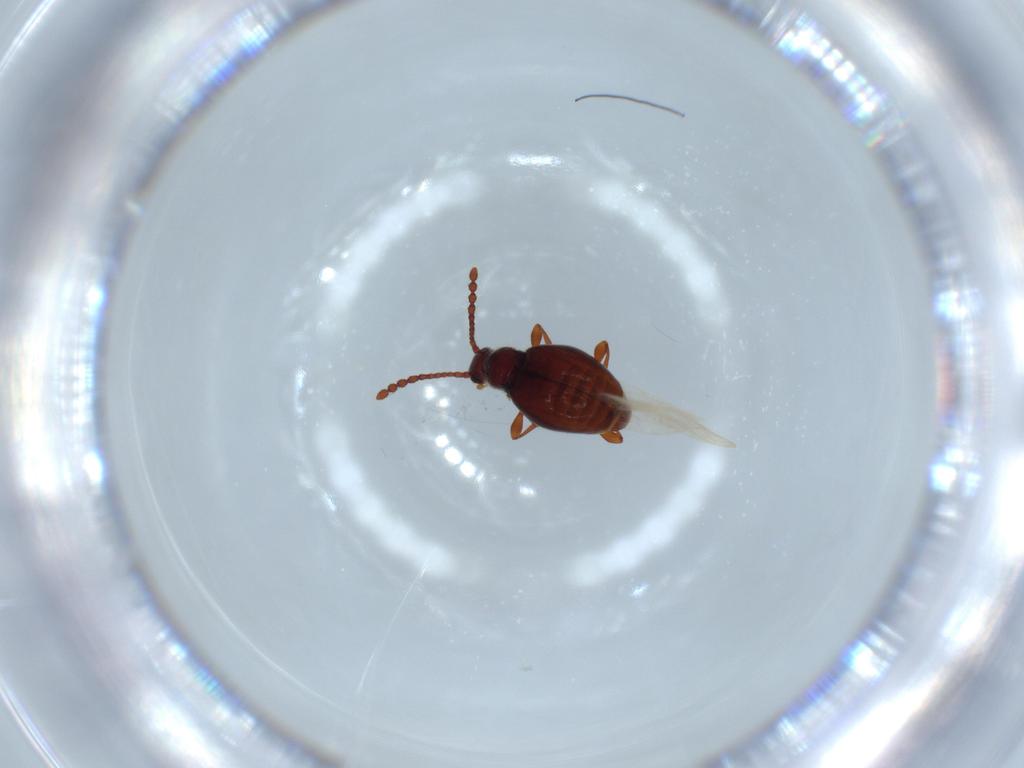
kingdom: Animalia
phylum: Arthropoda
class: Insecta
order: Coleoptera
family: Staphylinidae
